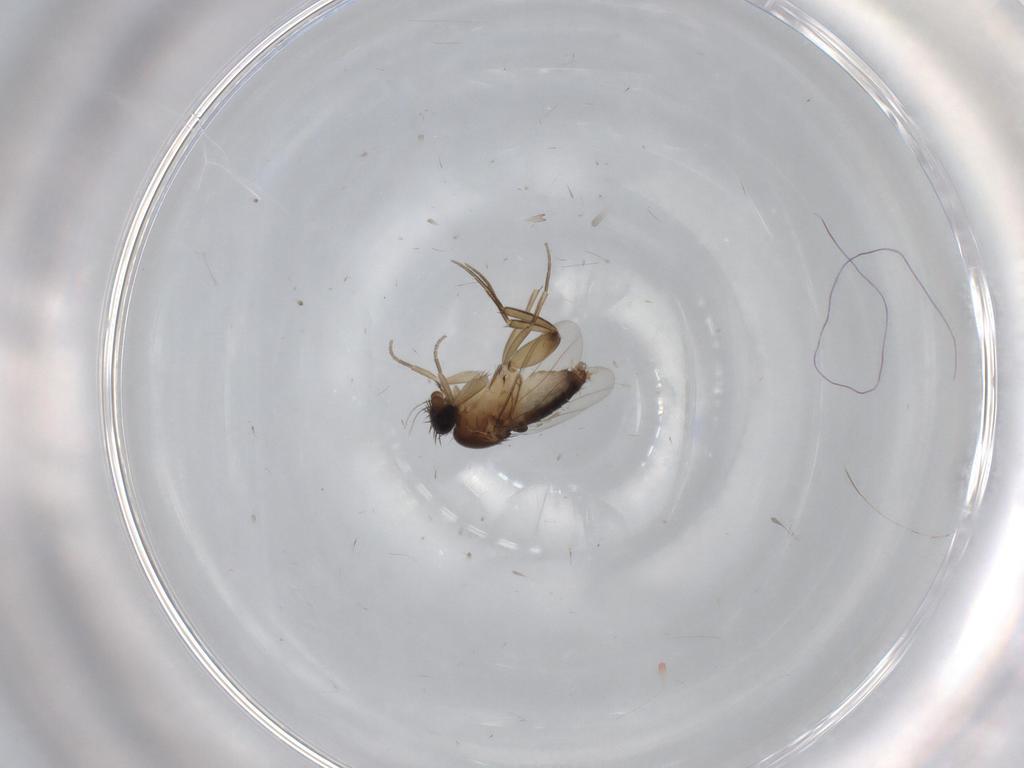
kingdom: Animalia
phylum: Arthropoda
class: Insecta
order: Diptera
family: Phoridae
